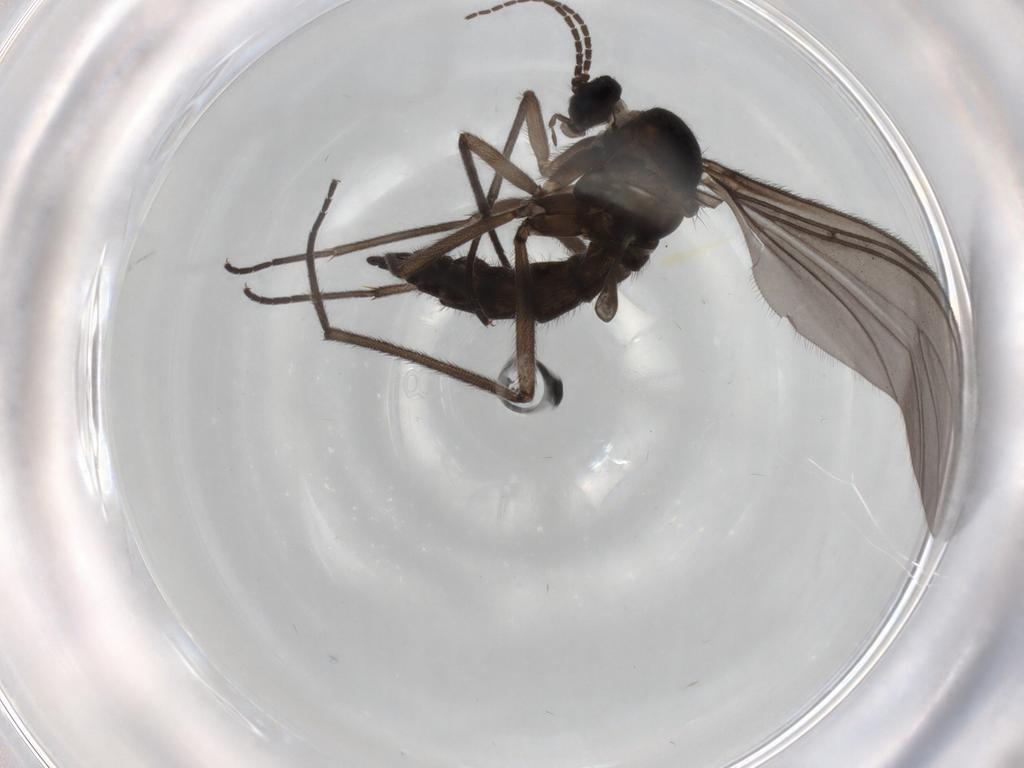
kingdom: Animalia
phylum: Arthropoda
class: Insecta
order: Diptera
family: Sciaridae
